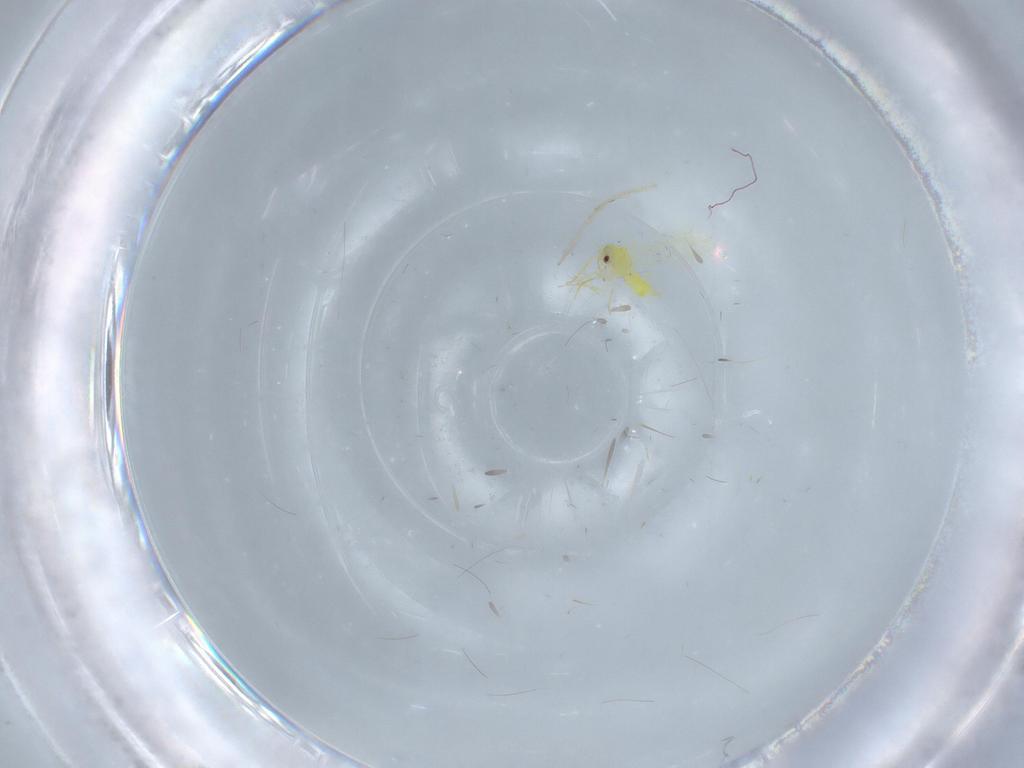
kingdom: Animalia
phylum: Arthropoda
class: Insecta
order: Hemiptera
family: Aleyrodidae
